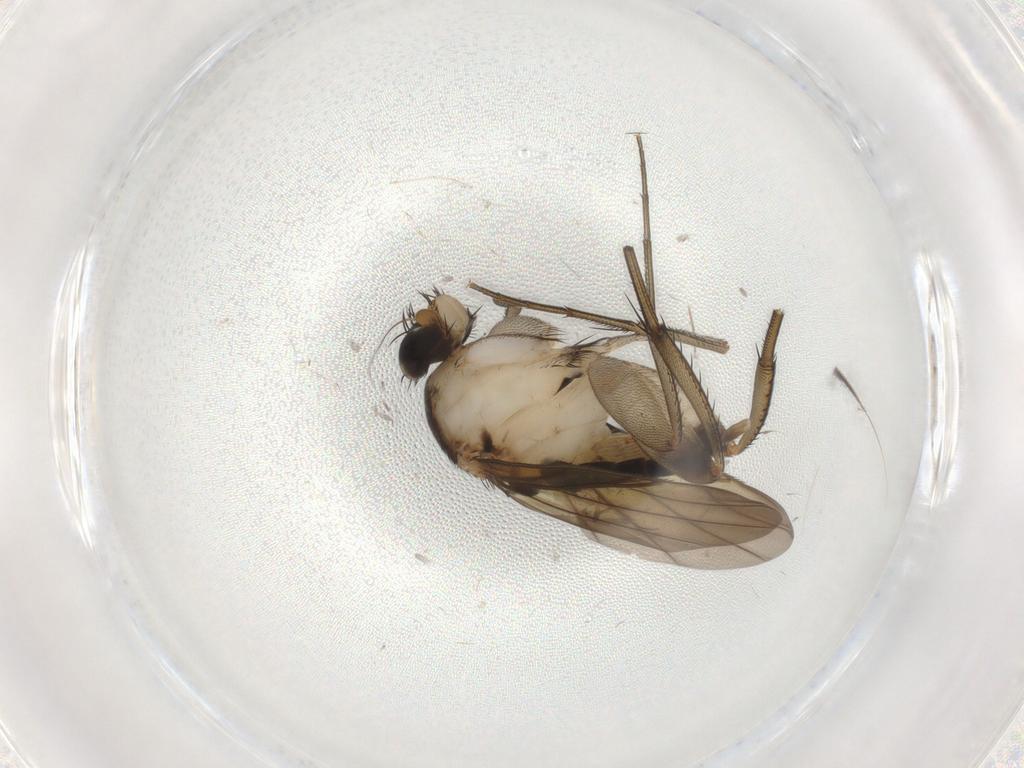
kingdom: Animalia
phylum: Arthropoda
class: Insecta
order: Diptera
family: Phoridae
